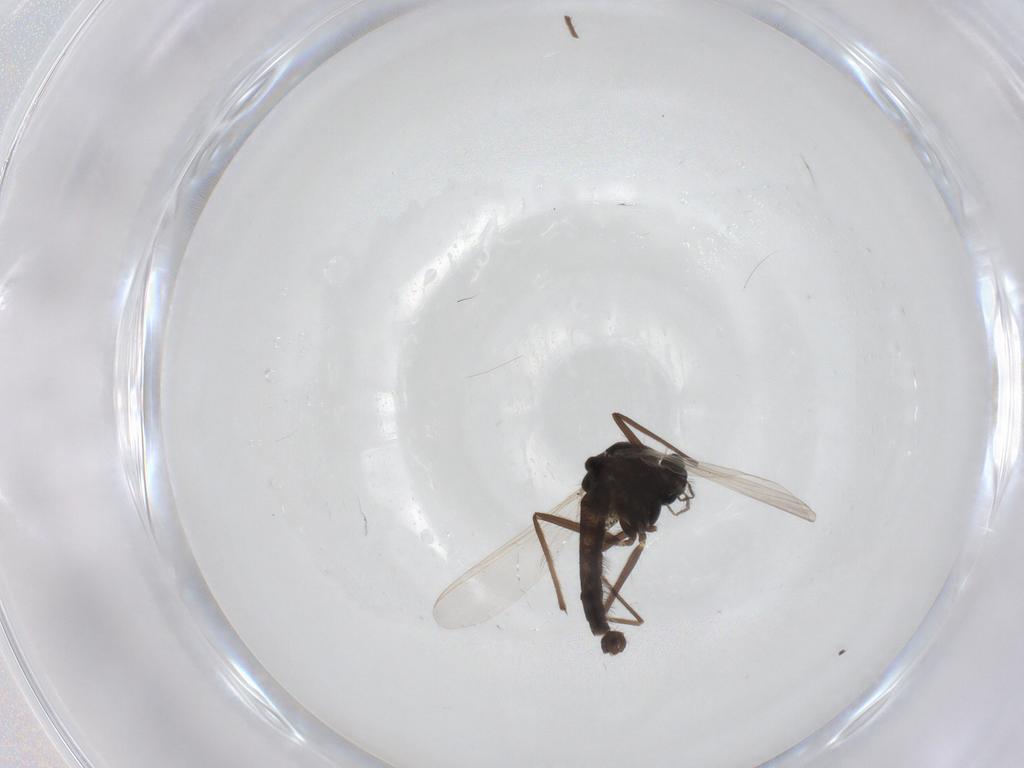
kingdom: Animalia
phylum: Arthropoda
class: Insecta
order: Diptera
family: Chironomidae
